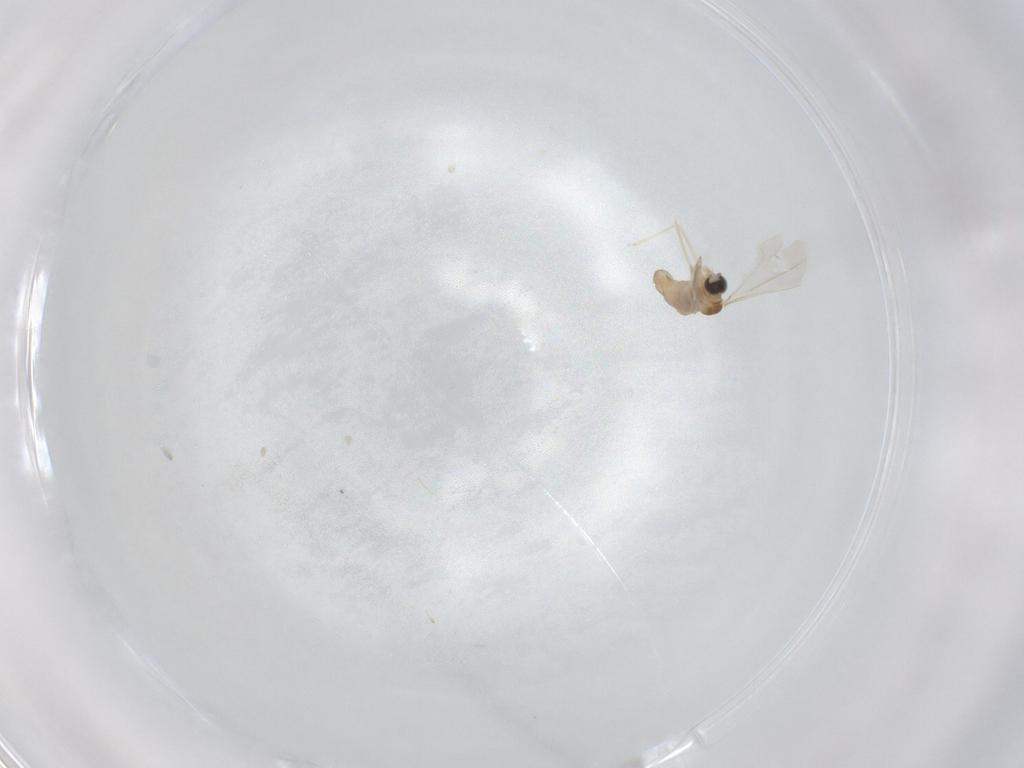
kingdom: Animalia
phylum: Arthropoda
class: Insecta
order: Diptera
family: Cecidomyiidae
